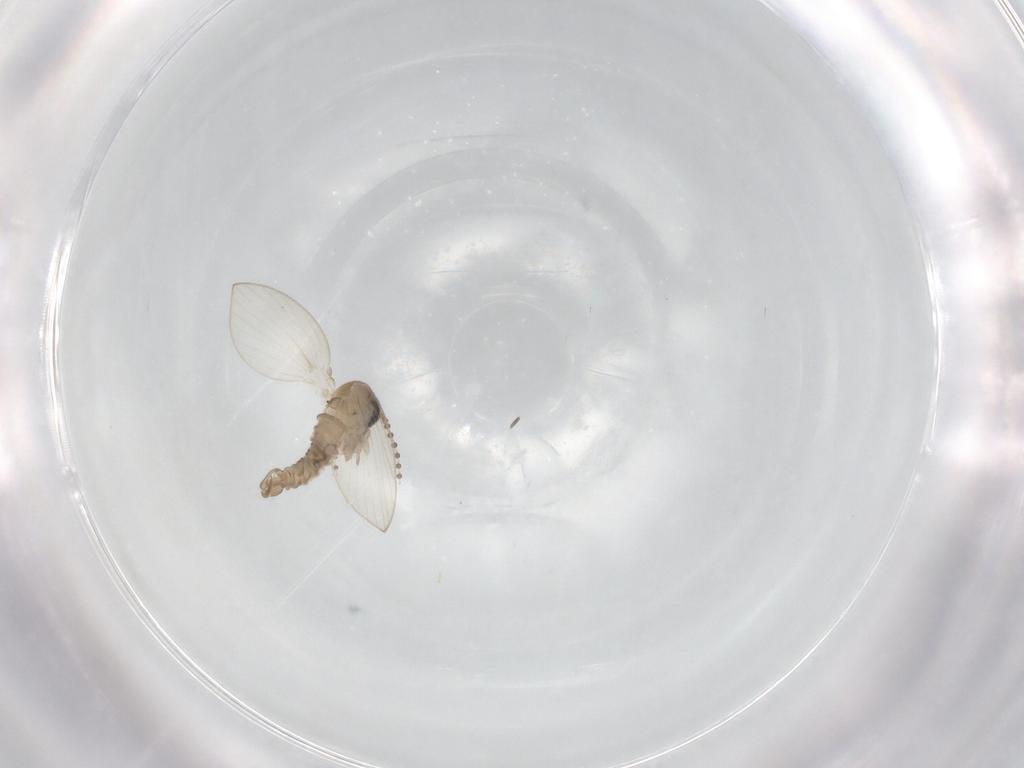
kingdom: Animalia
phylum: Arthropoda
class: Insecta
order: Diptera
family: Psychodidae
